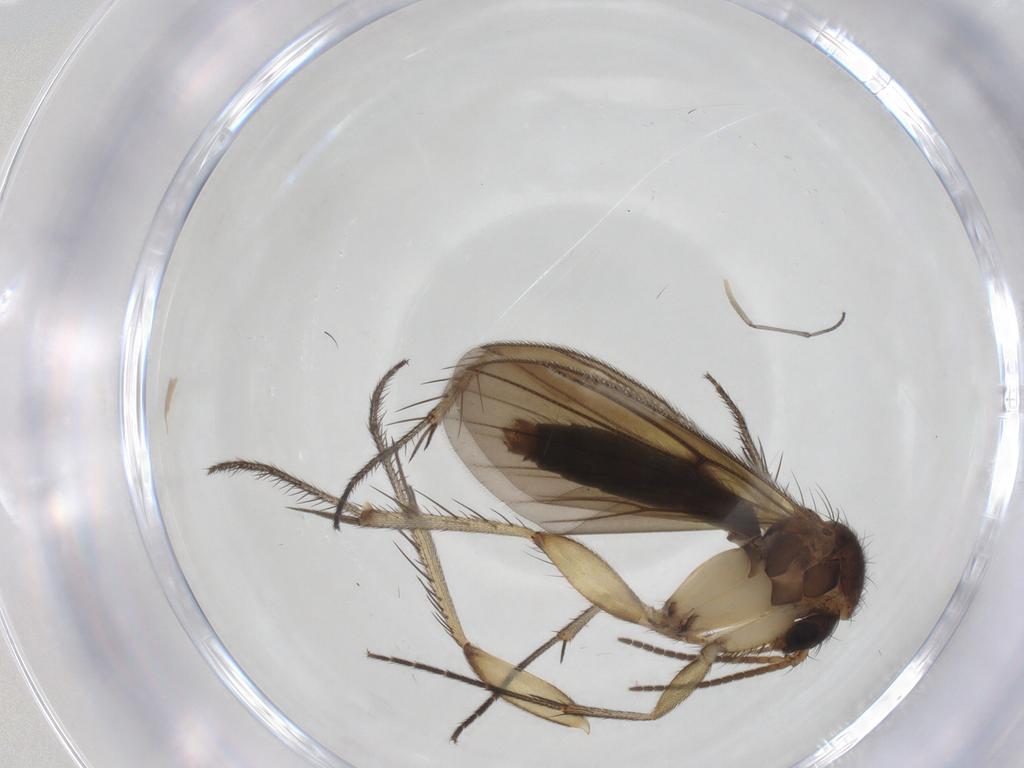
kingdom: Animalia
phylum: Arthropoda
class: Insecta
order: Diptera
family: Sciaridae
